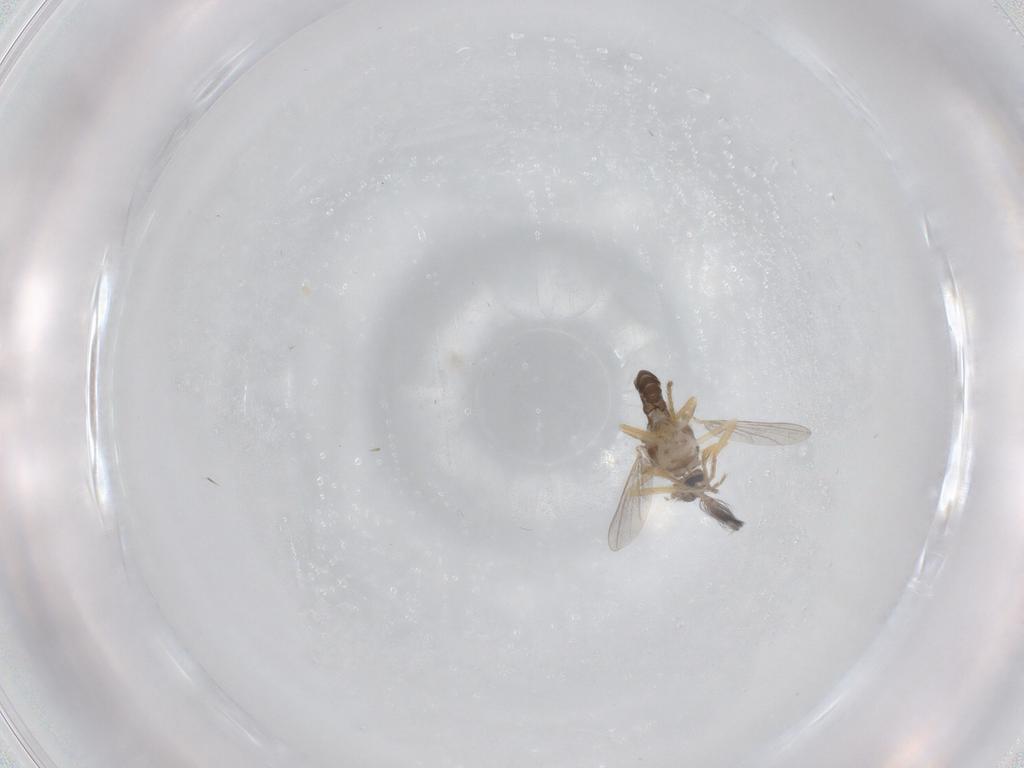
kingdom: Animalia
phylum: Arthropoda
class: Insecta
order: Diptera
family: Ceratopogonidae
